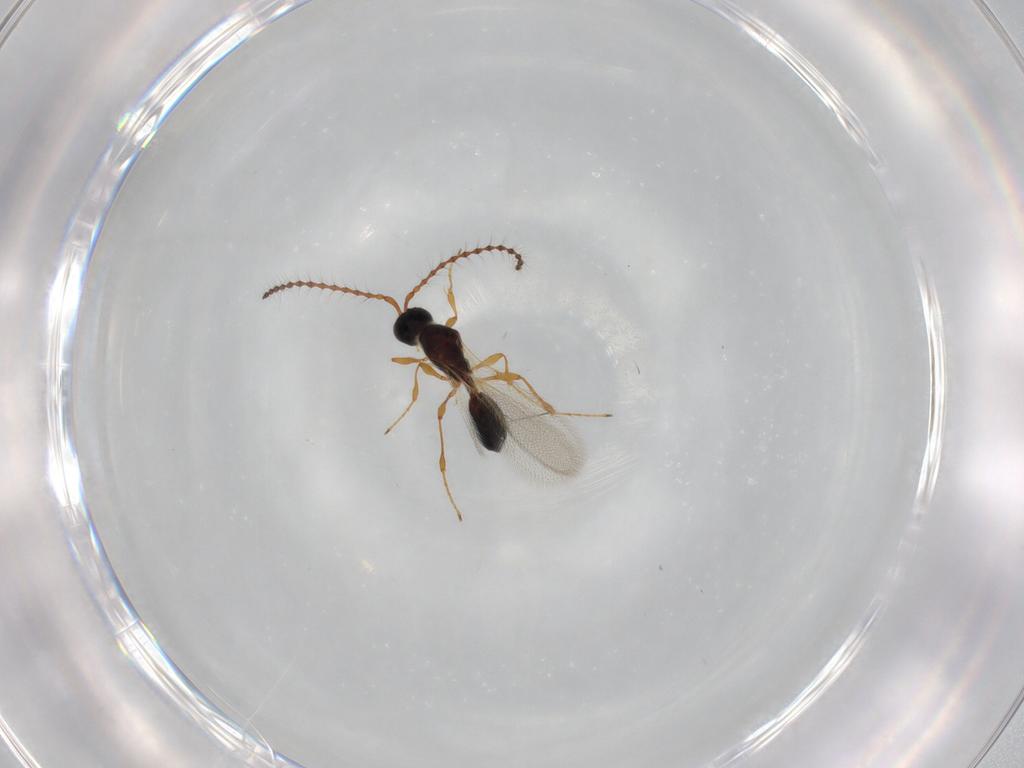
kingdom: Animalia
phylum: Arthropoda
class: Insecta
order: Hymenoptera
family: Diapriidae
